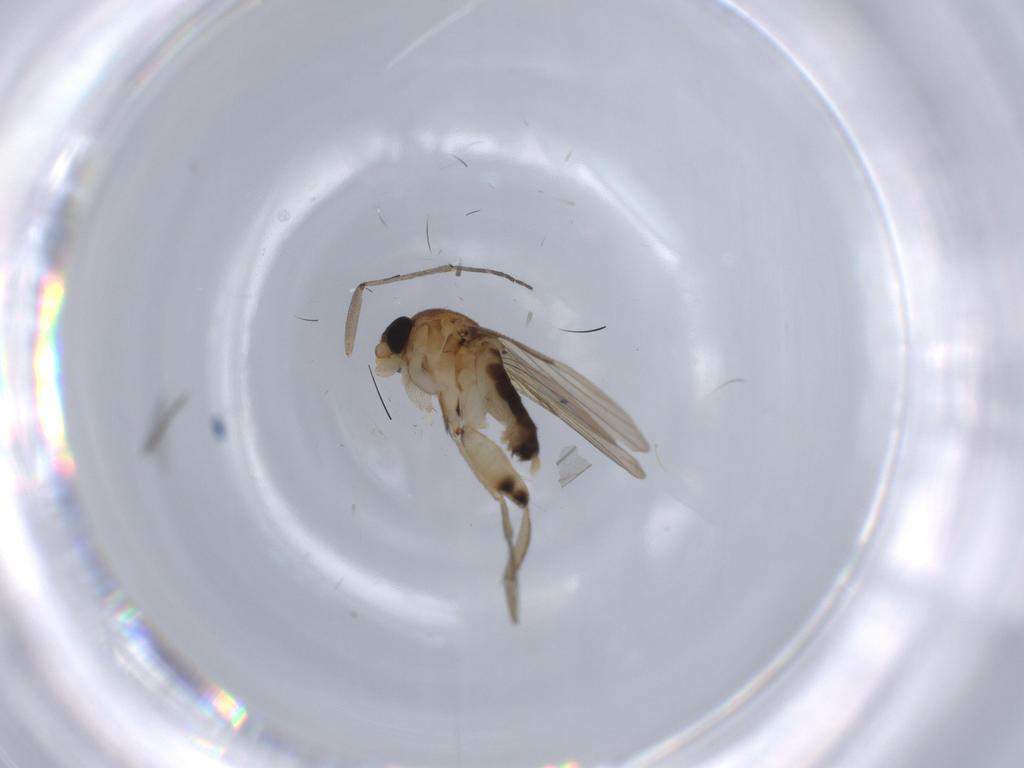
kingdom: Animalia
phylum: Arthropoda
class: Insecta
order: Diptera
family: Phoridae
